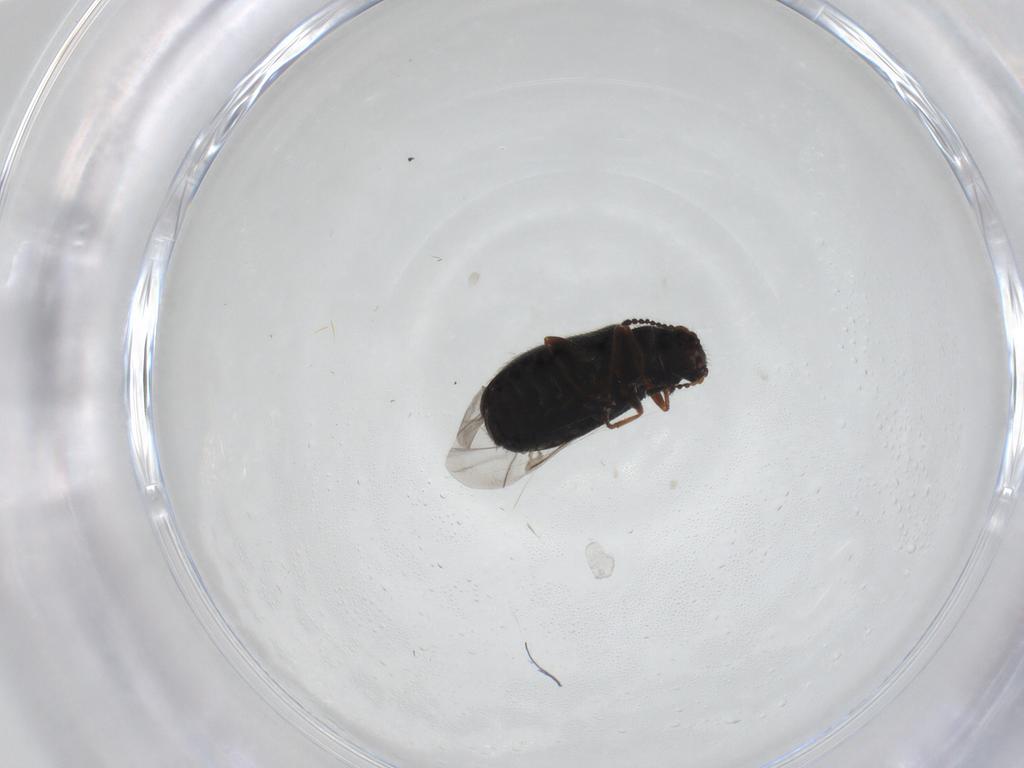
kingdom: Animalia
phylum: Arthropoda
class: Insecta
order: Coleoptera
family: Melyridae
